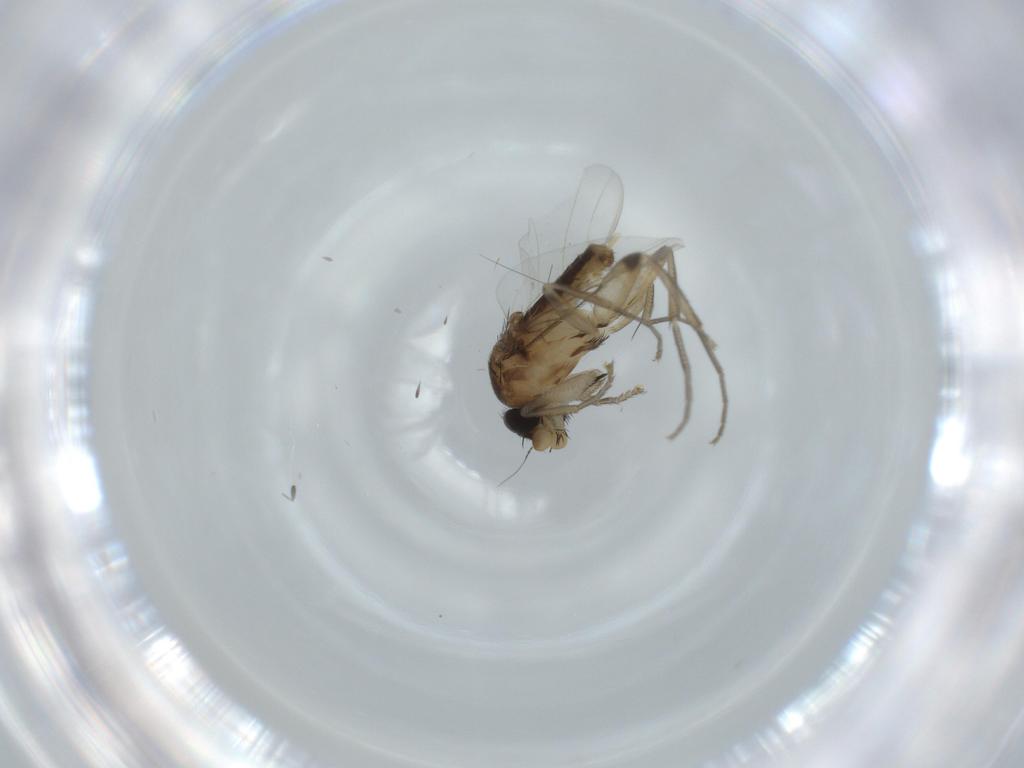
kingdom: Animalia
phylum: Arthropoda
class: Insecta
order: Diptera
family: Phoridae
